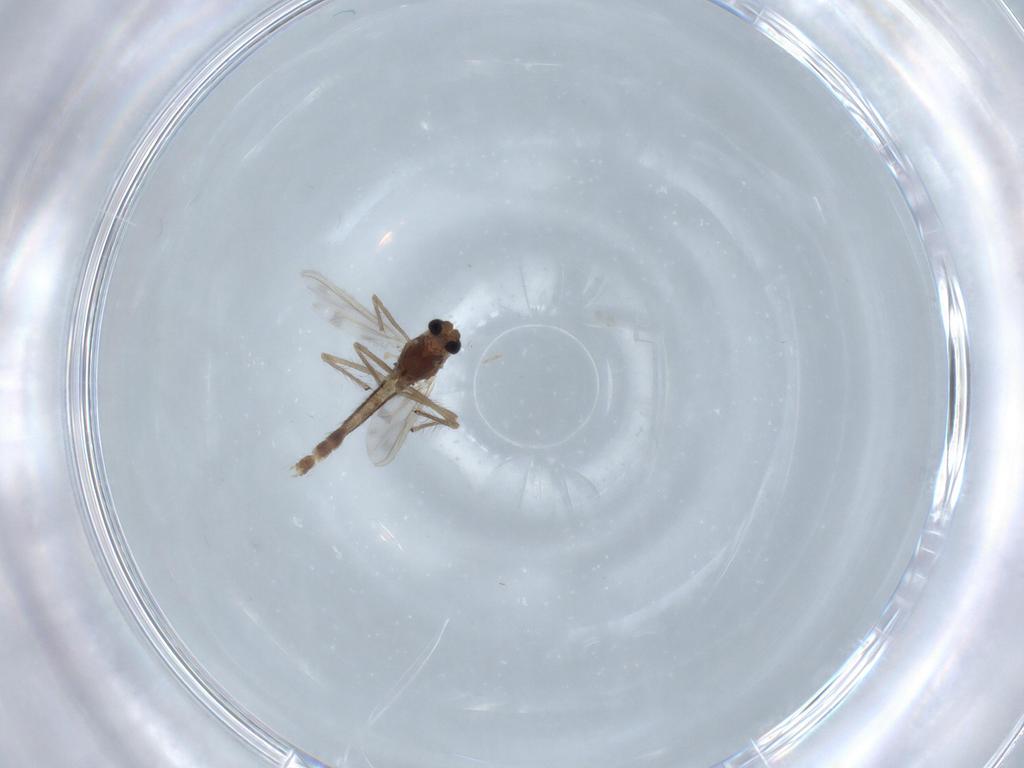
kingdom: Animalia
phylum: Arthropoda
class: Insecta
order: Diptera
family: Chironomidae
